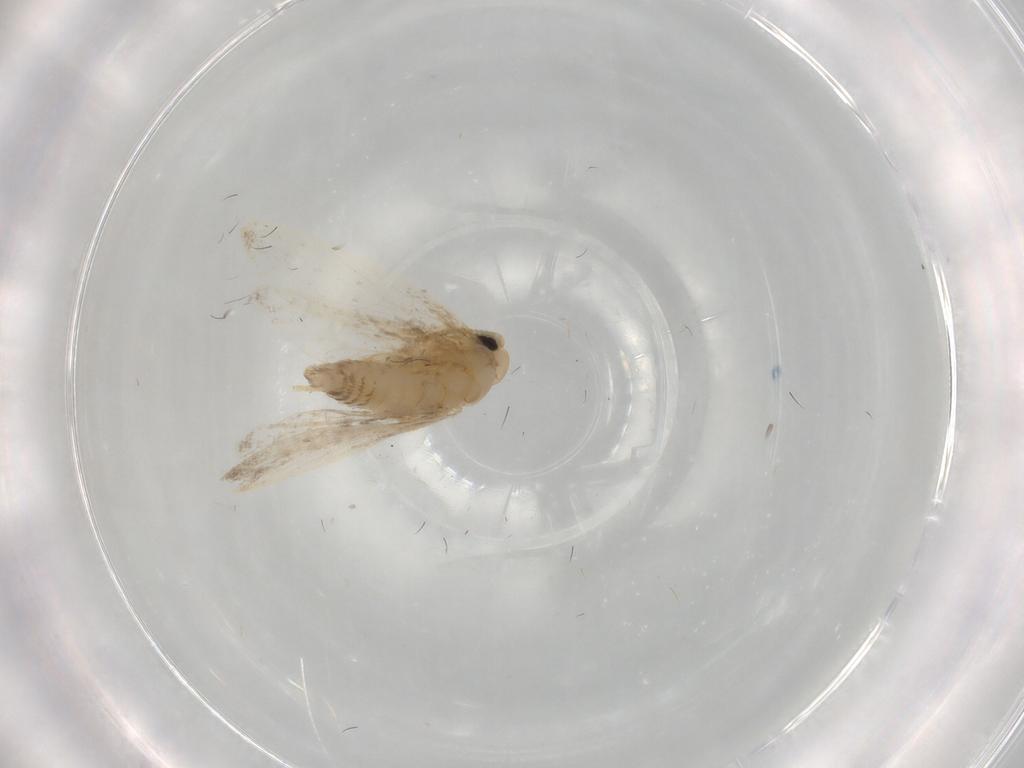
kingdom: Animalia
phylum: Arthropoda
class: Insecta
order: Lepidoptera
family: Psychidae
